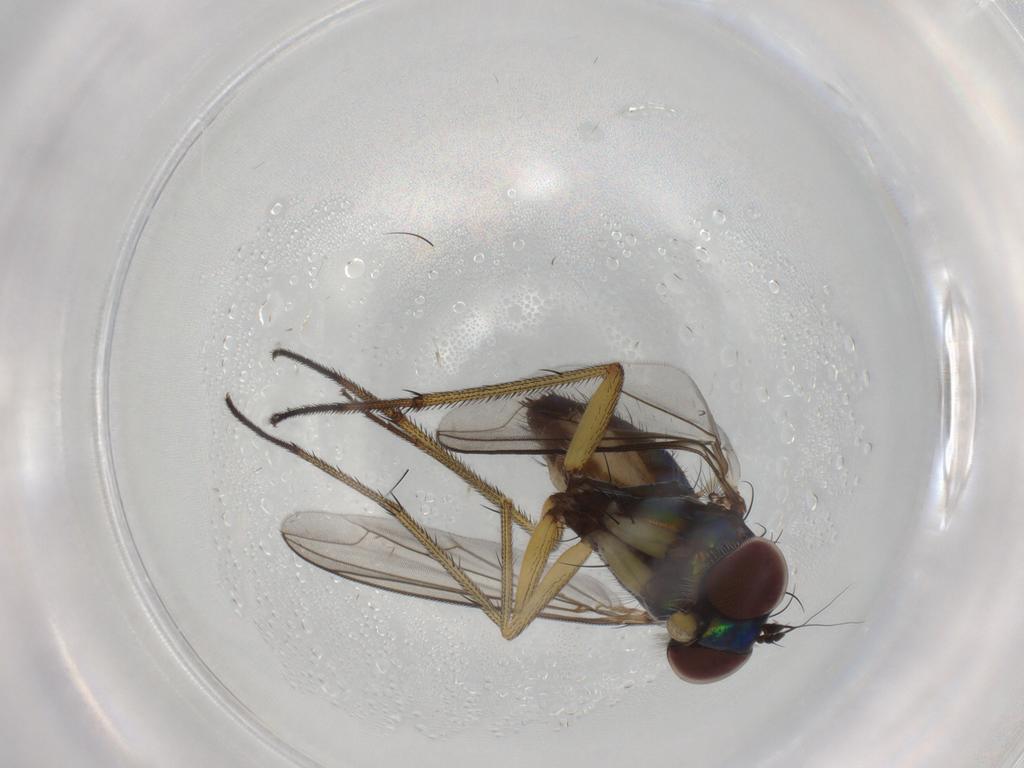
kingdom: Animalia
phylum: Arthropoda
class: Insecta
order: Diptera
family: Dolichopodidae
